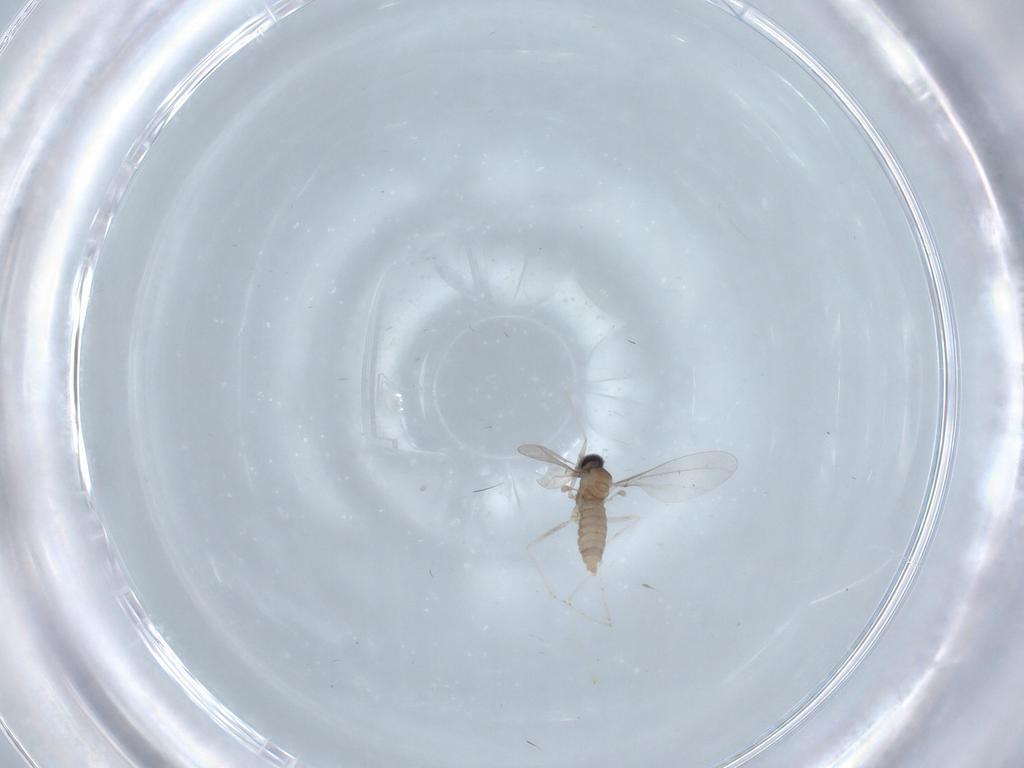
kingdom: Animalia
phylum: Arthropoda
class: Insecta
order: Diptera
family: Cecidomyiidae
